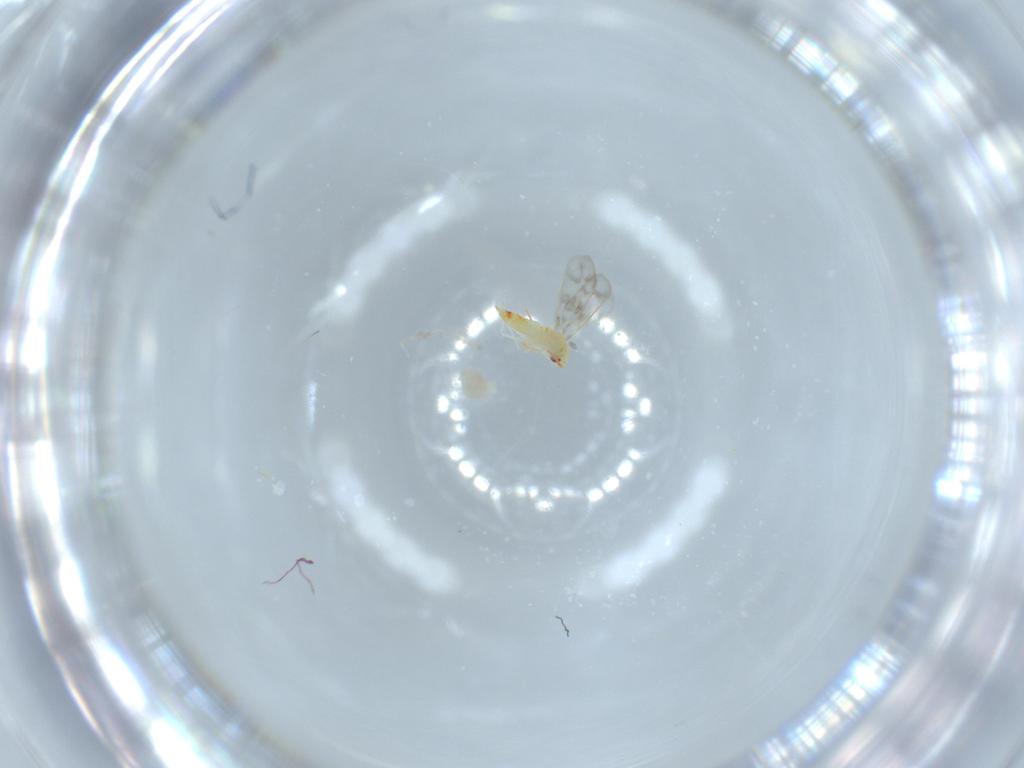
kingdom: Animalia
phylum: Arthropoda
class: Insecta
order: Hemiptera
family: Aleyrodidae
